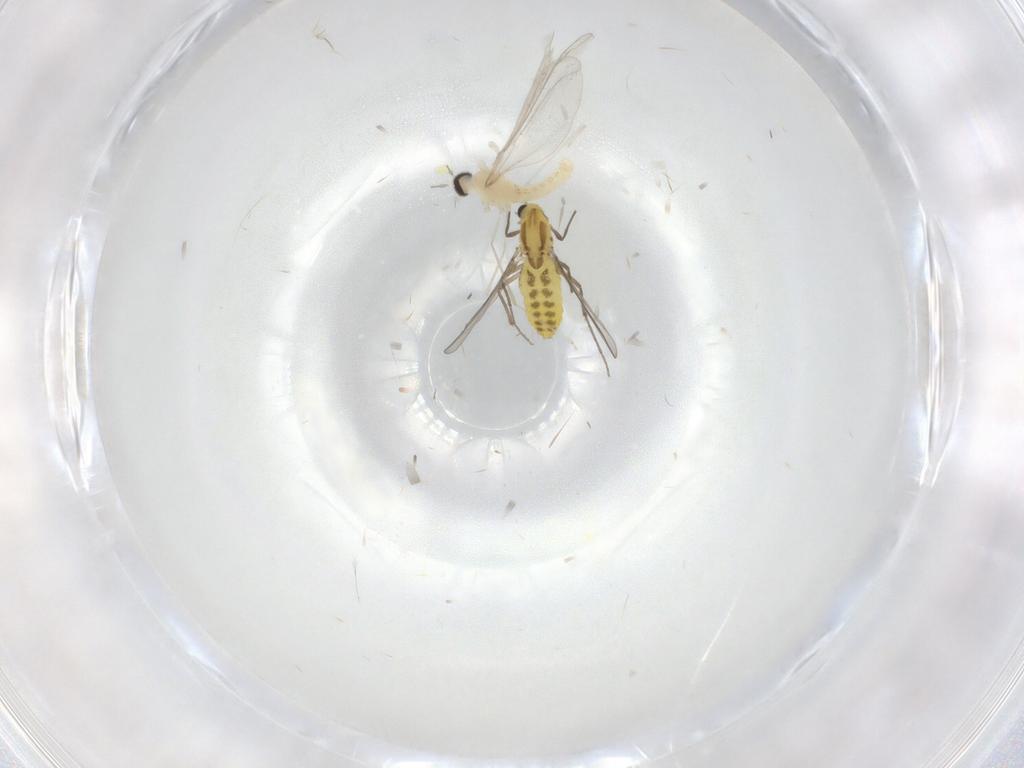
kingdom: Animalia
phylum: Arthropoda
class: Insecta
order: Diptera
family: Chironomidae
